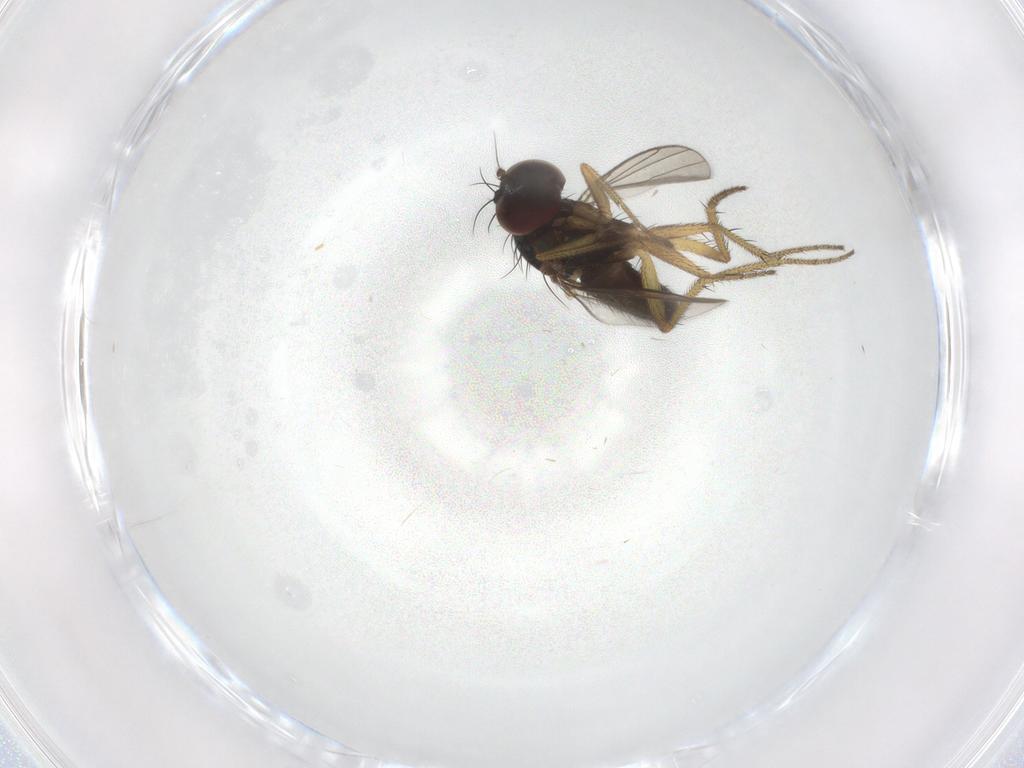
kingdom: Animalia
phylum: Arthropoda
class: Insecta
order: Diptera
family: Dolichopodidae
